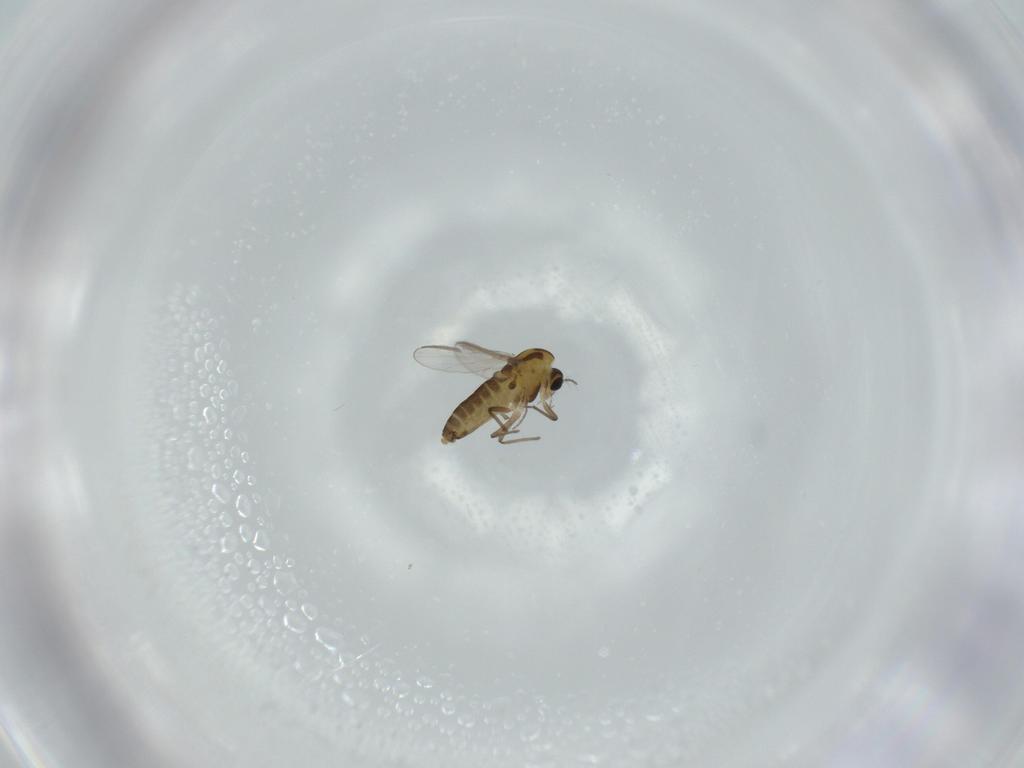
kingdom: Animalia
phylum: Arthropoda
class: Insecta
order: Diptera
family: Chironomidae
